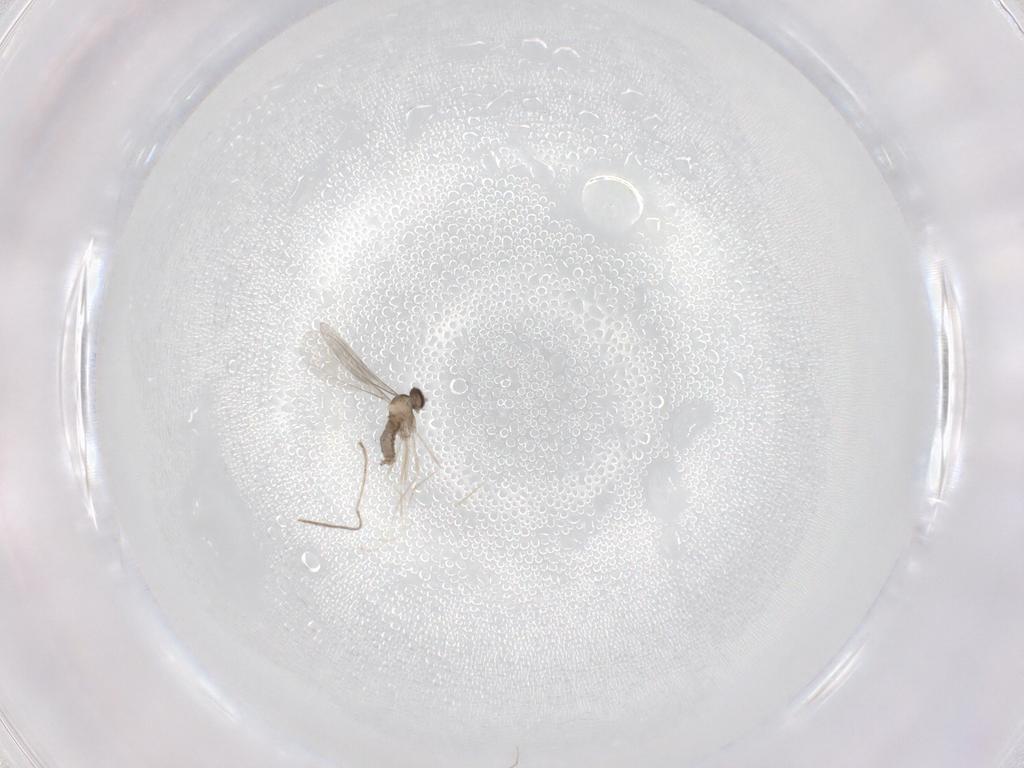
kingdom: Animalia
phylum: Arthropoda
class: Insecta
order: Diptera
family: Cecidomyiidae
